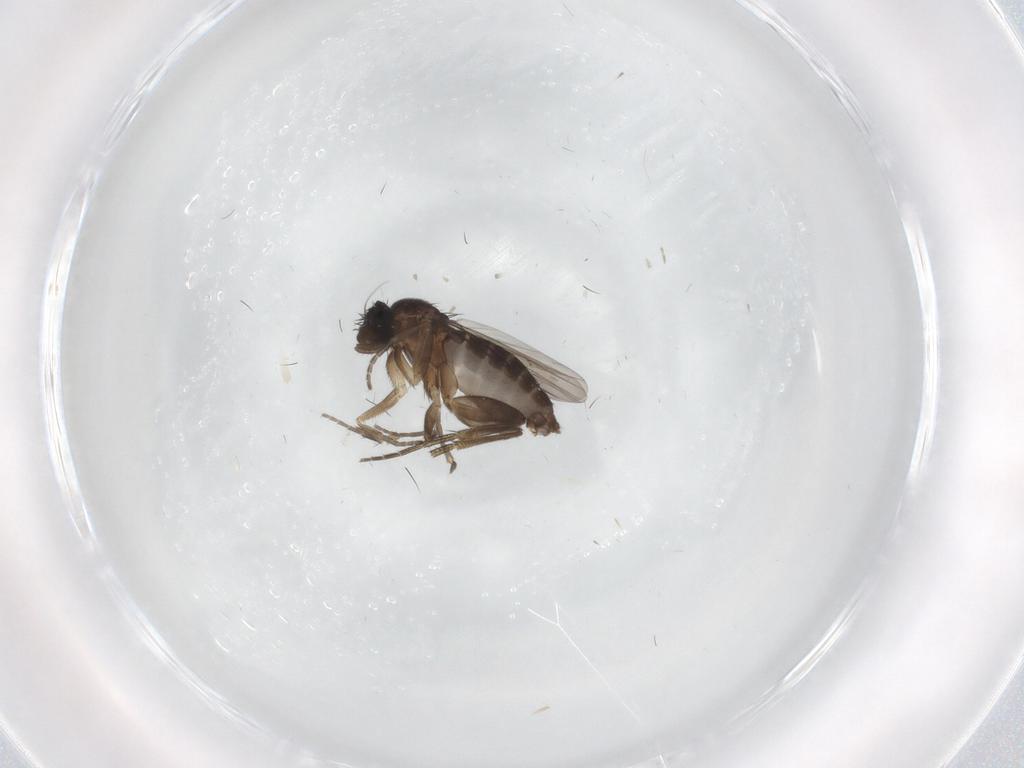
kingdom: Animalia
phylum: Arthropoda
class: Insecta
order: Diptera
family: Phoridae
